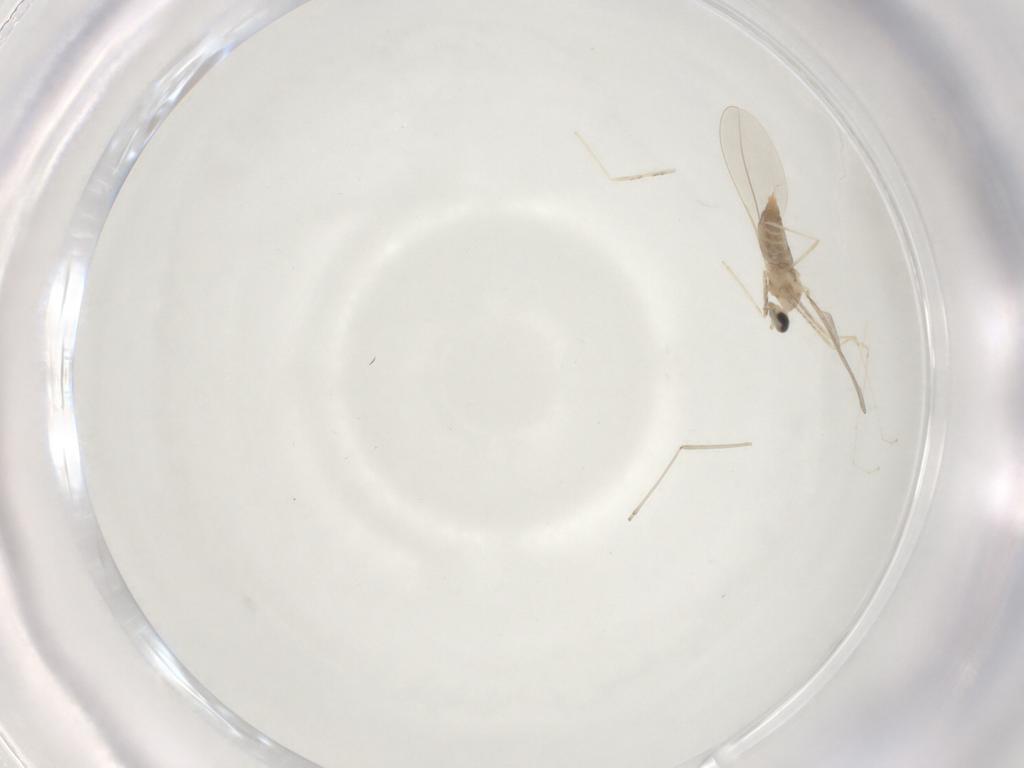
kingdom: Animalia
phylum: Arthropoda
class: Insecta
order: Diptera
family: Cecidomyiidae
